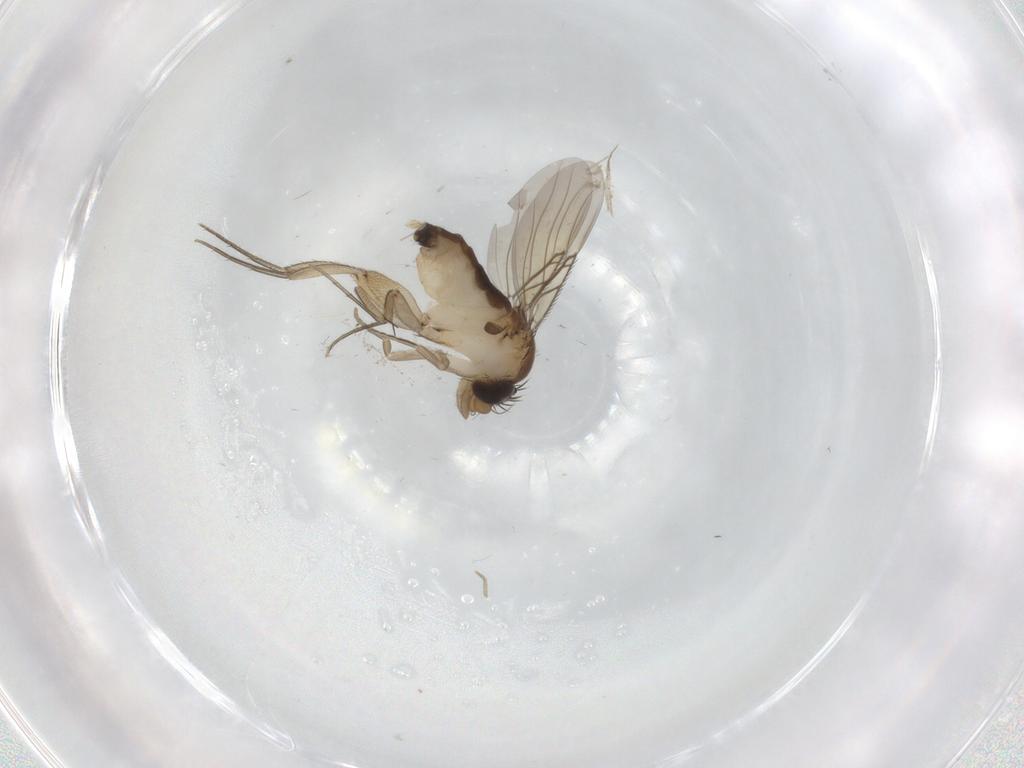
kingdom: Animalia
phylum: Arthropoda
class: Insecta
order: Diptera
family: Phoridae
